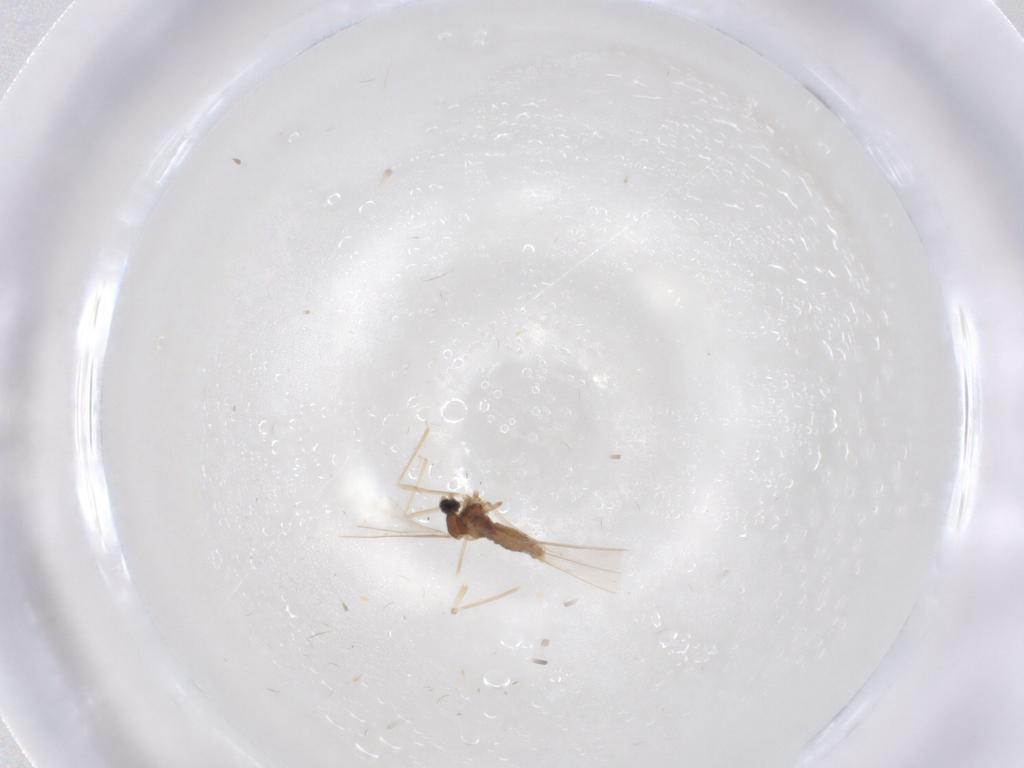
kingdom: Animalia
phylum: Arthropoda
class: Insecta
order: Diptera
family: Cecidomyiidae
